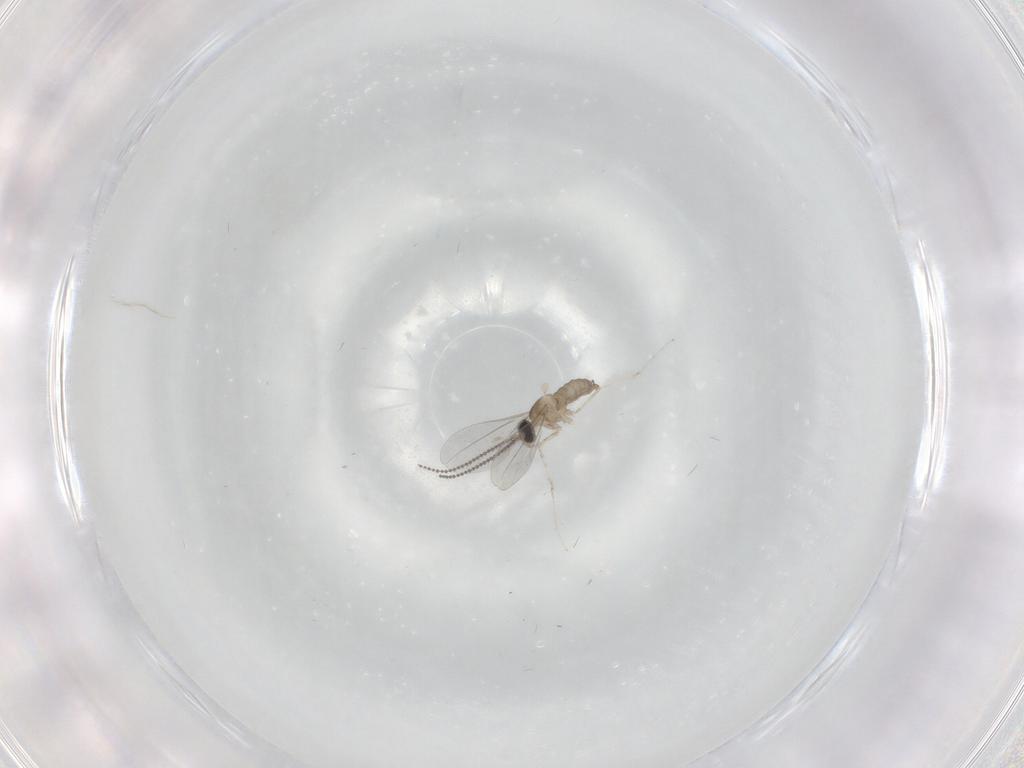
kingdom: Animalia
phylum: Arthropoda
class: Insecta
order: Diptera
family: Cecidomyiidae
